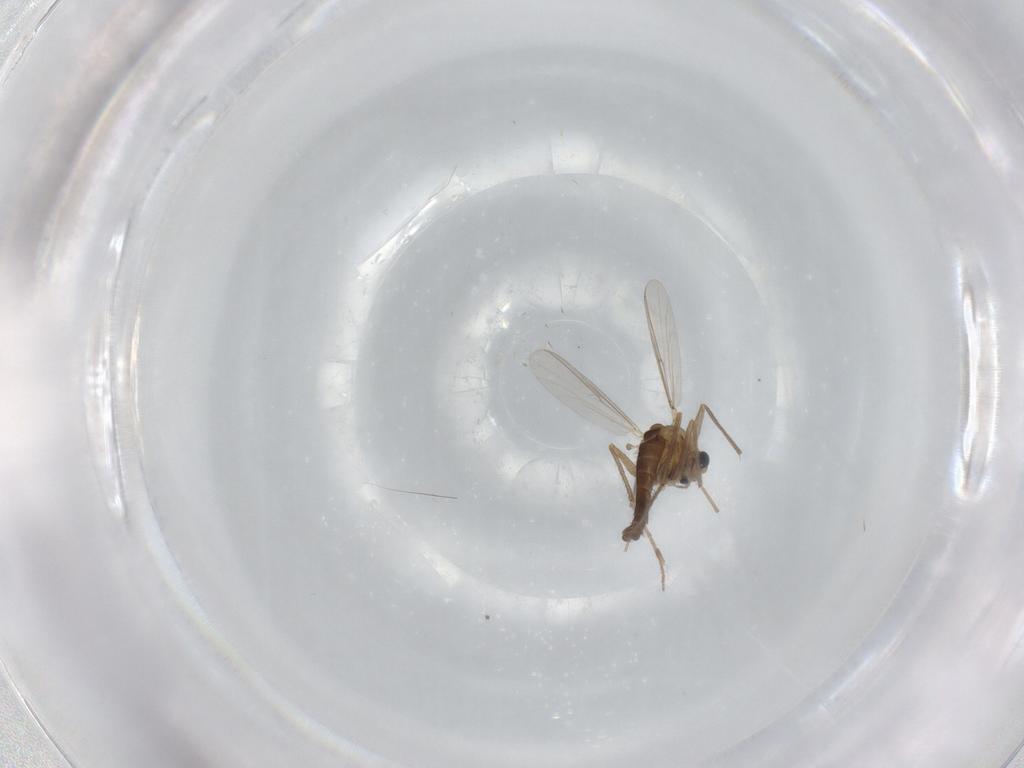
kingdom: Animalia
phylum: Arthropoda
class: Insecta
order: Diptera
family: Chironomidae
